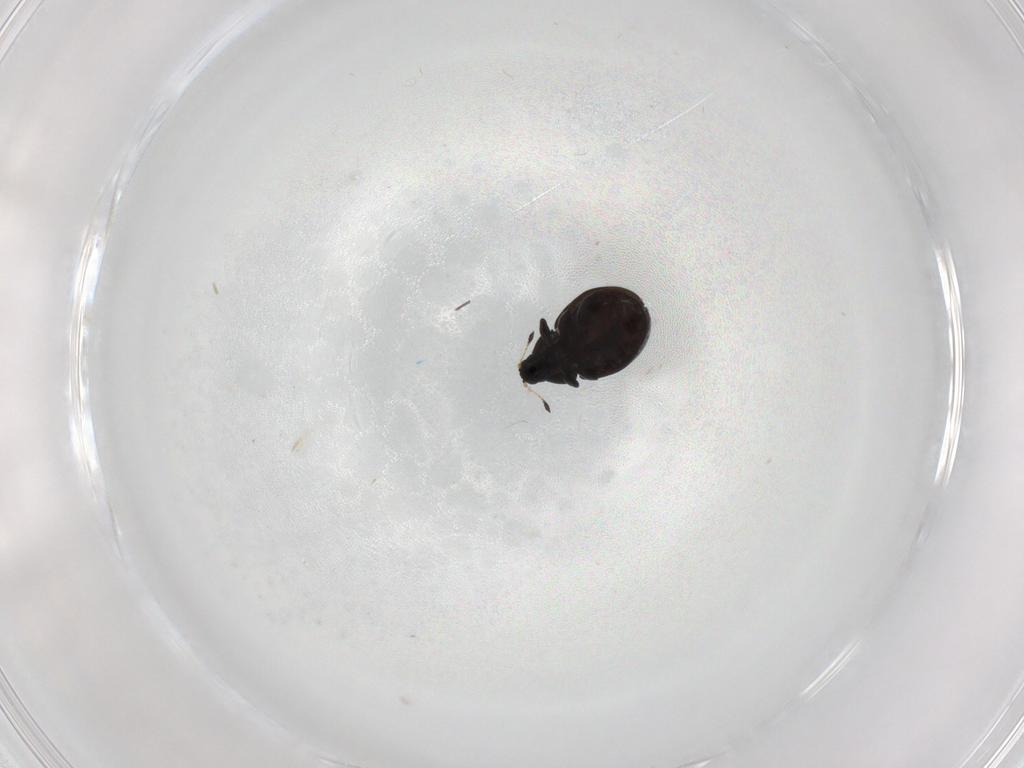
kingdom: Animalia
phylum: Arthropoda
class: Insecta
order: Coleoptera
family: Curculionidae
